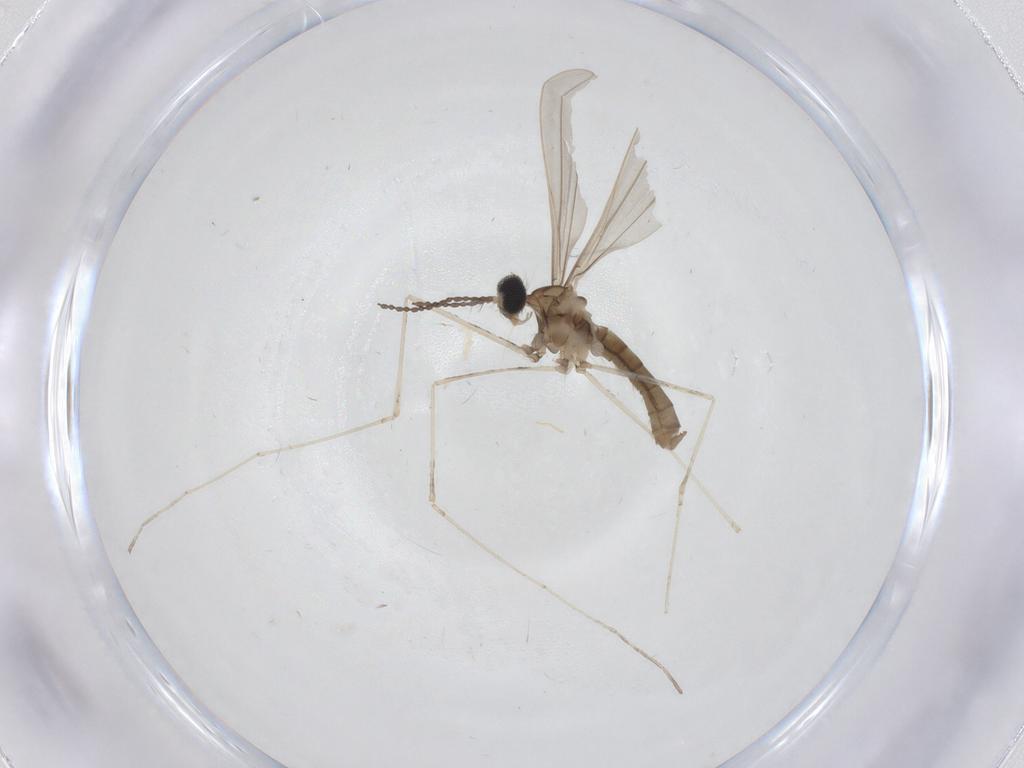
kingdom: Animalia
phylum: Arthropoda
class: Insecta
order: Diptera
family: Cecidomyiidae
